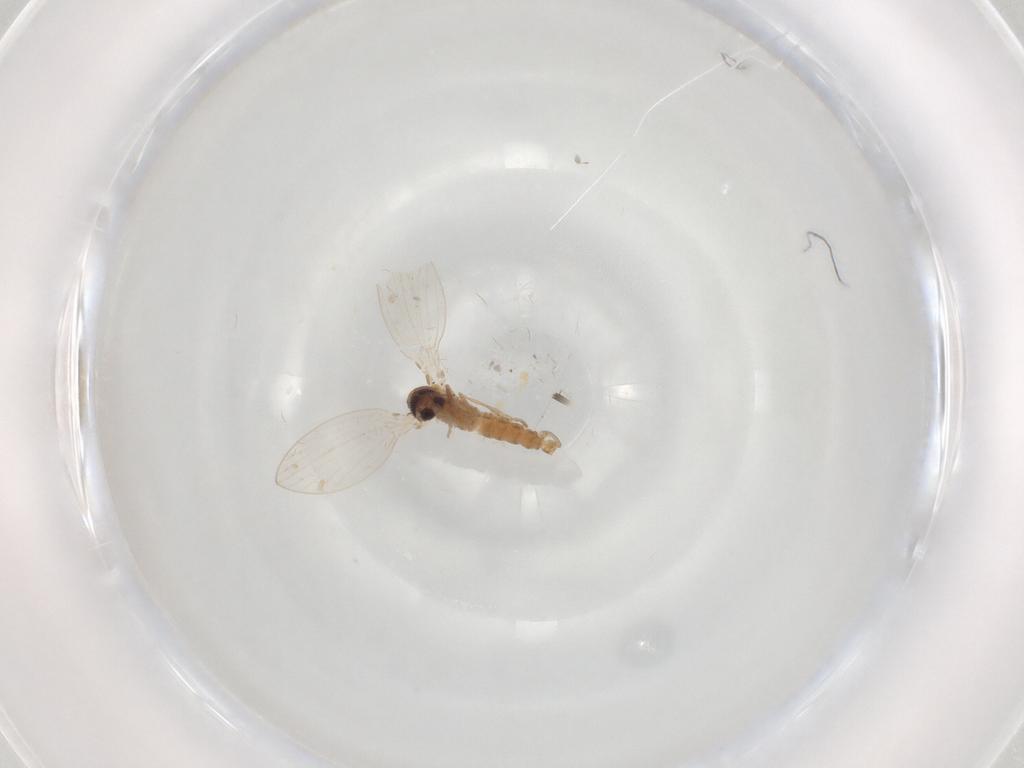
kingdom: Animalia
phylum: Arthropoda
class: Insecta
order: Diptera
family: Psychodidae
